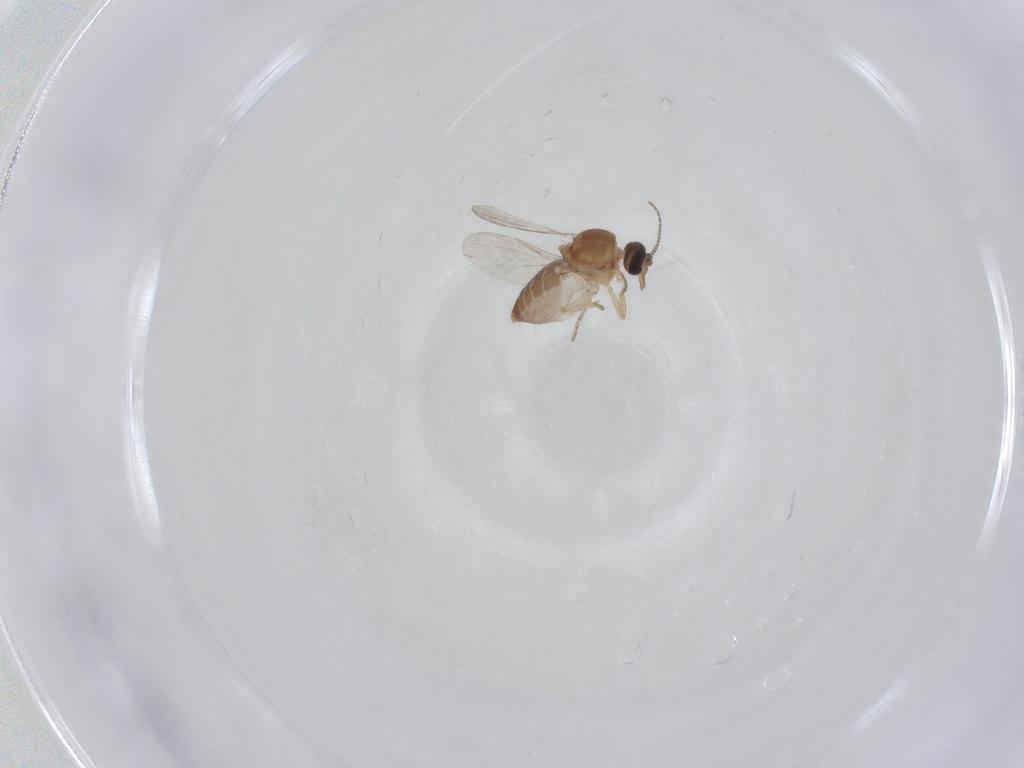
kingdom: Animalia
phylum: Arthropoda
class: Insecta
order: Diptera
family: Ceratopogonidae
